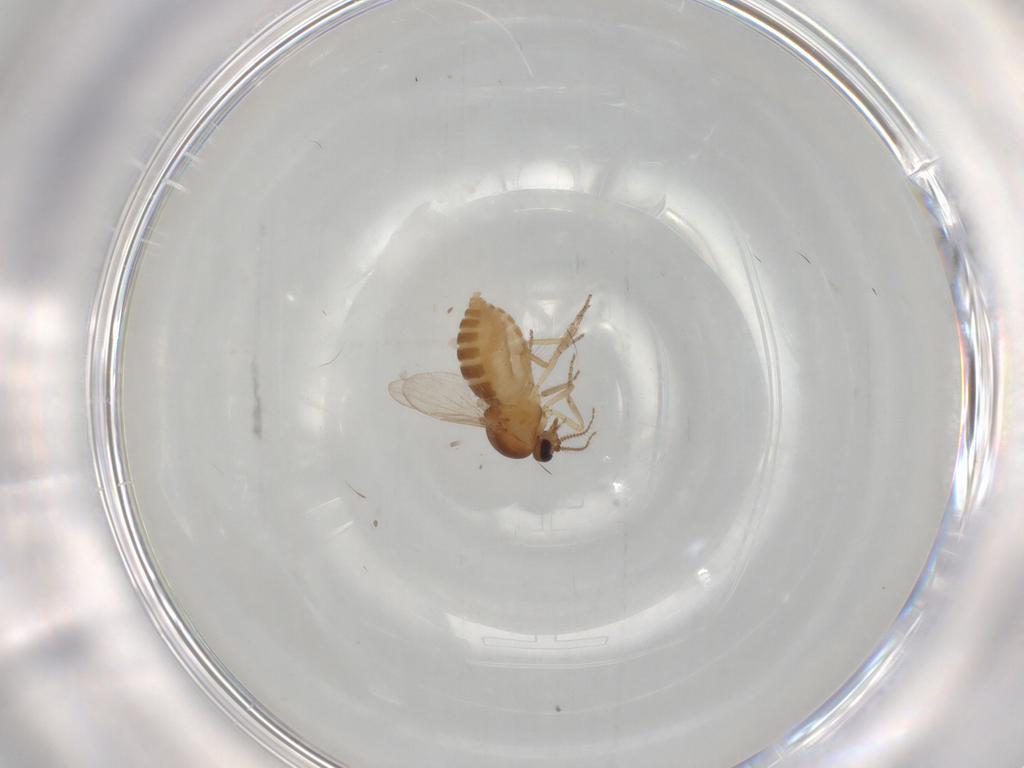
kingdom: Animalia
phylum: Arthropoda
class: Insecta
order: Diptera
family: Ceratopogonidae
